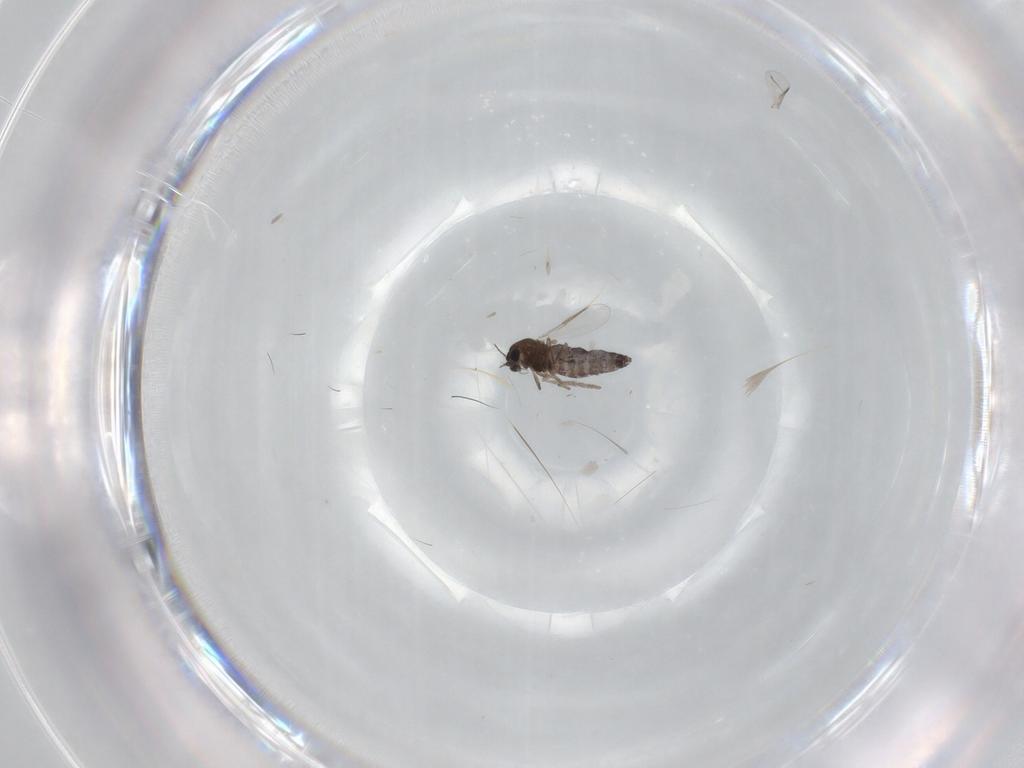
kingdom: Animalia
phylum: Arthropoda
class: Insecta
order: Diptera
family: Chironomidae
